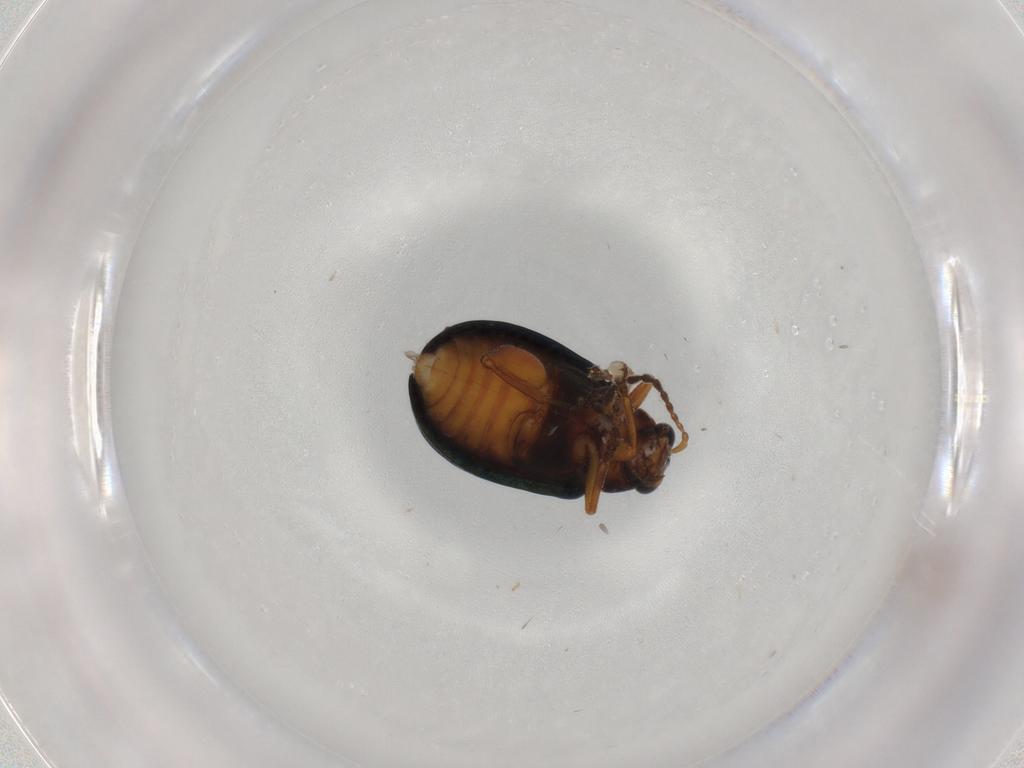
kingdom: Animalia
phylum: Arthropoda
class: Insecta
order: Coleoptera
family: Chrysomelidae
